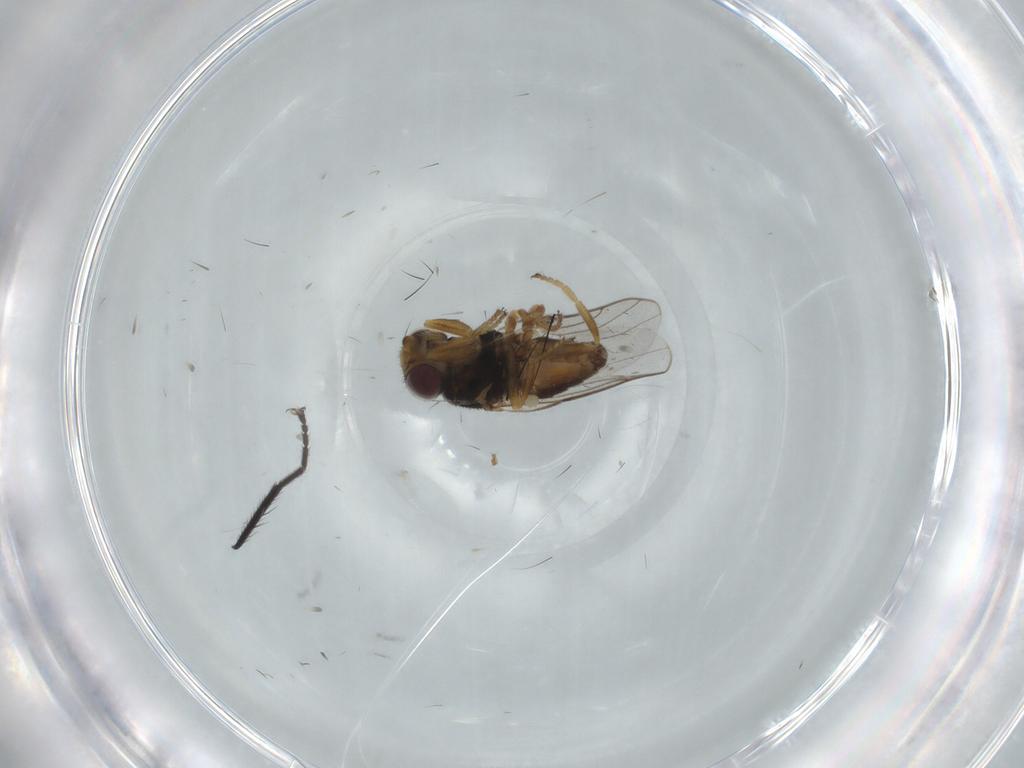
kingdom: Animalia
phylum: Arthropoda
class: Insecta
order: Diptera
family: Chloropidae
